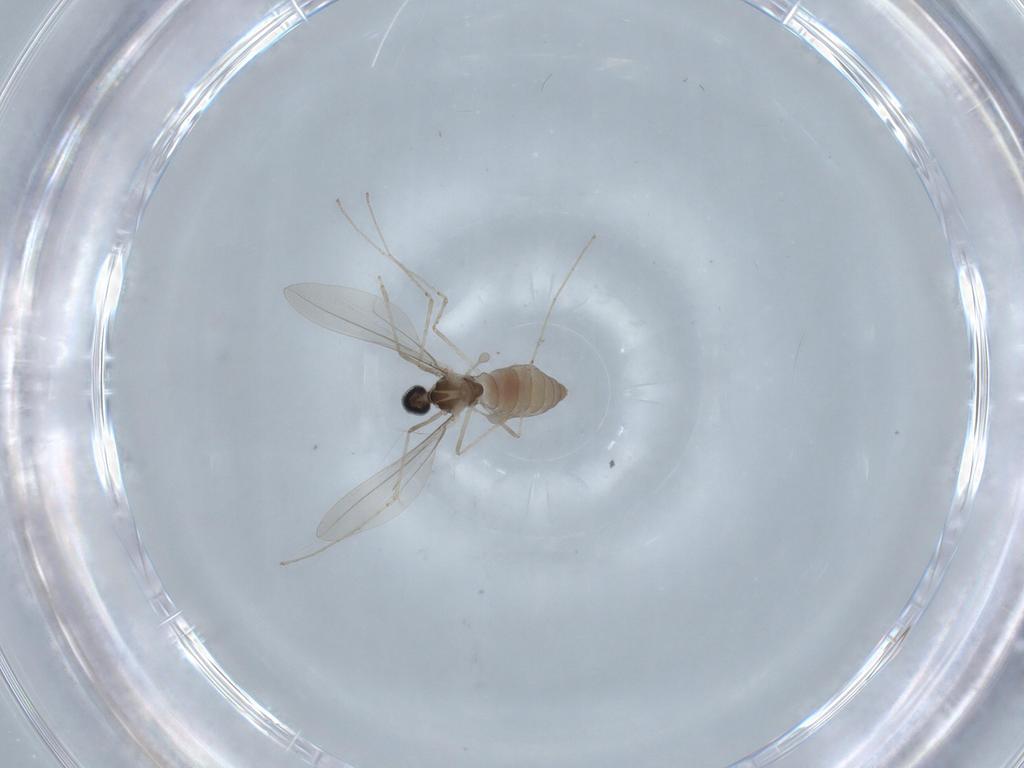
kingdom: Animalia
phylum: Arthropoda
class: Insecta
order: Diptera
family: Cecidomyiidae
